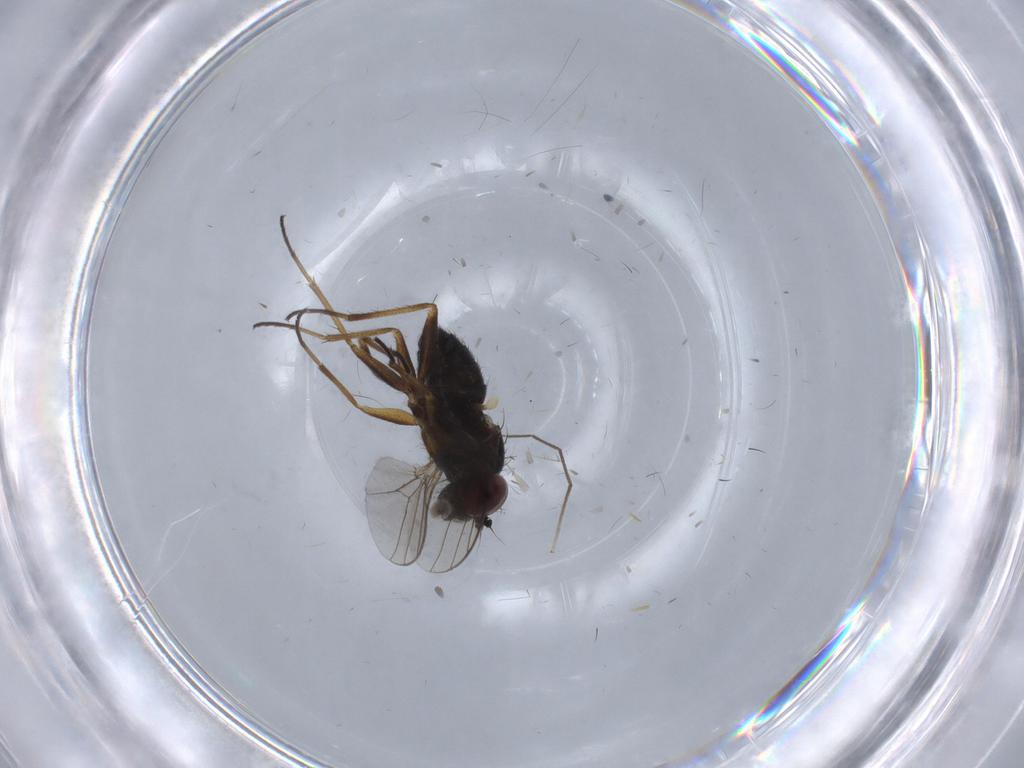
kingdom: Animalia
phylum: Arthropoda
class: Insecta
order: Diptera
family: Dolichopodidae
